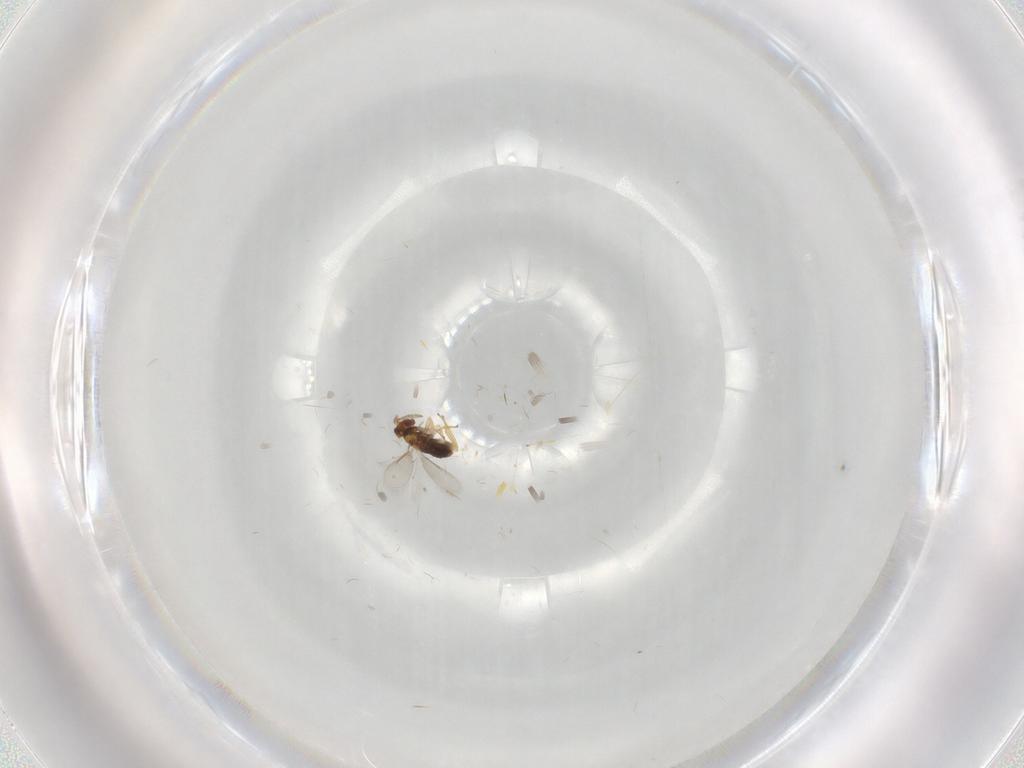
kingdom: Animalia
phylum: Arthropoda
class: Insecta
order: Hymenoptera
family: Aphelinidae
